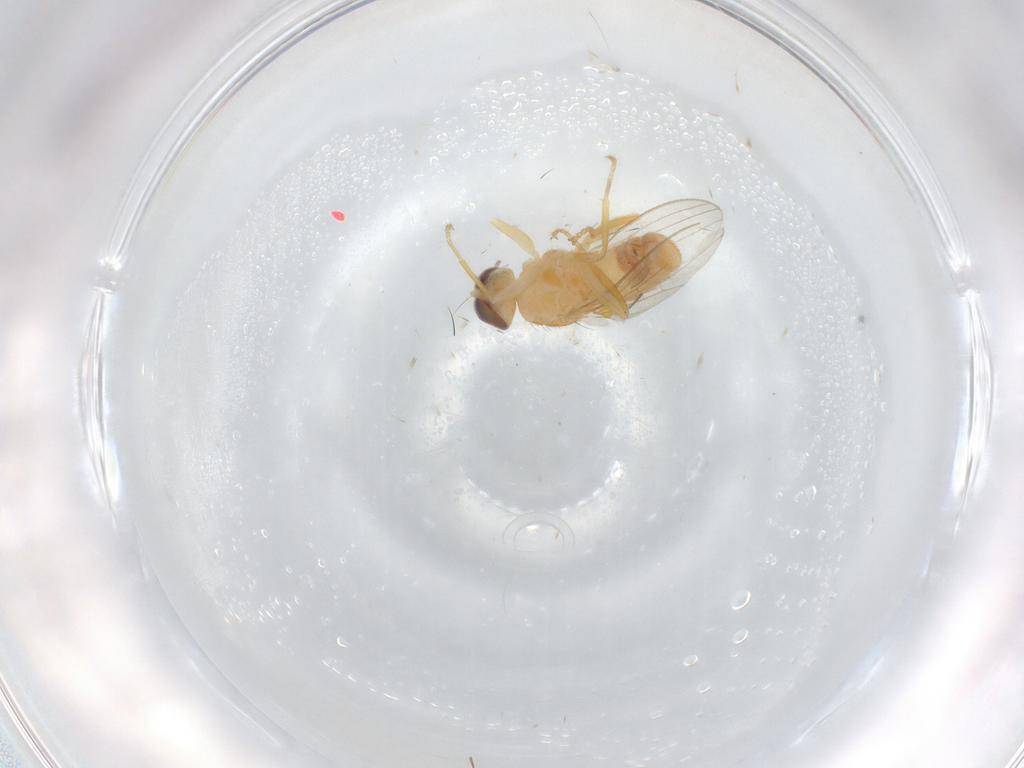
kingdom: Animalia
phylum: Arthropoda
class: Insecta
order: Diptera
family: Chyromyidae
